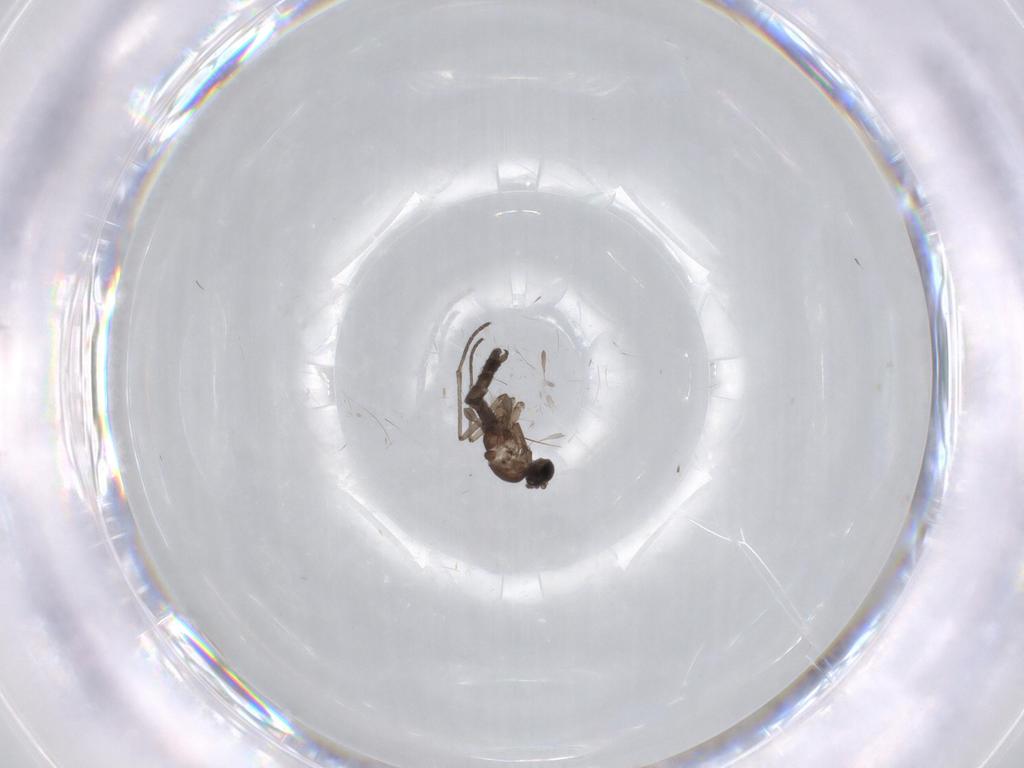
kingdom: Animalia
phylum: Arthropoda
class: Insecta
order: Diptera
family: Sciaridae
